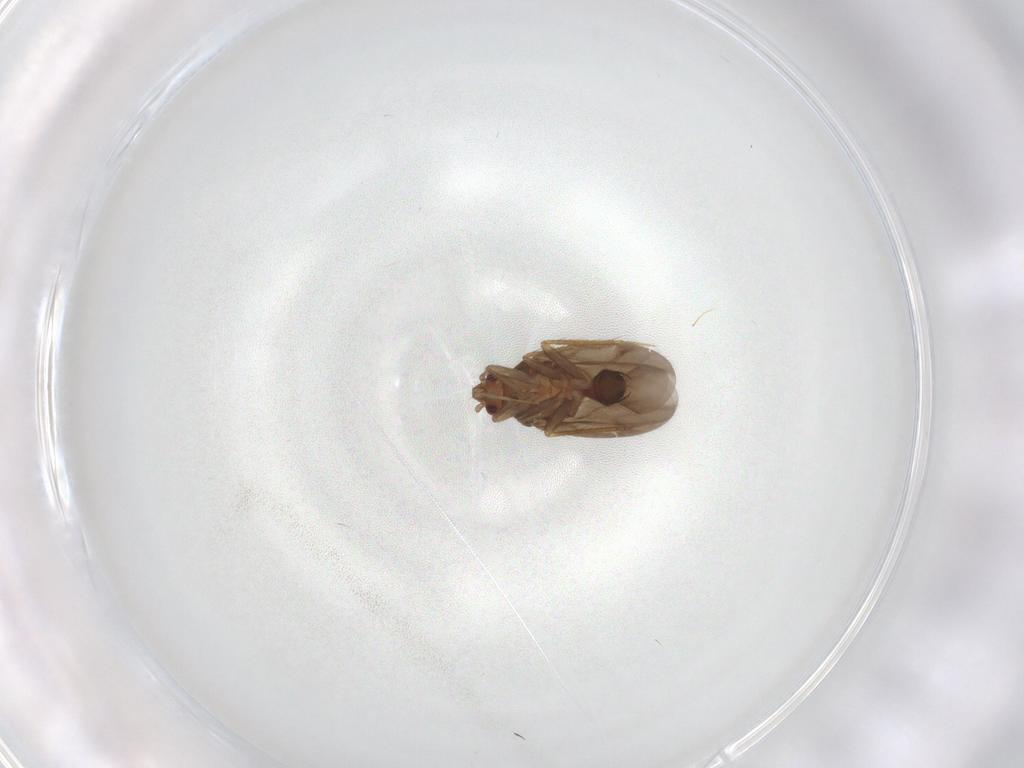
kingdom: Animalia
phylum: Arthropoda
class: Insecta
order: Hemiptera
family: Ceratocombidae
